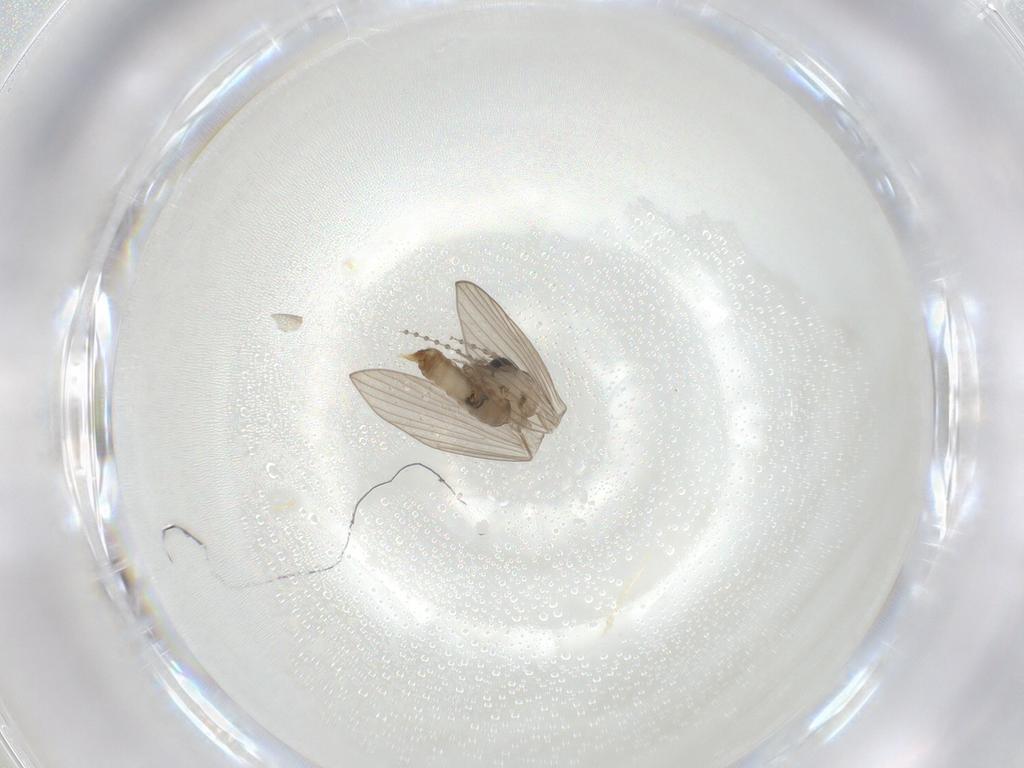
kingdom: Animalia
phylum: Arthropoda
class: Insecta
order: Diptera
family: Psychodidae
